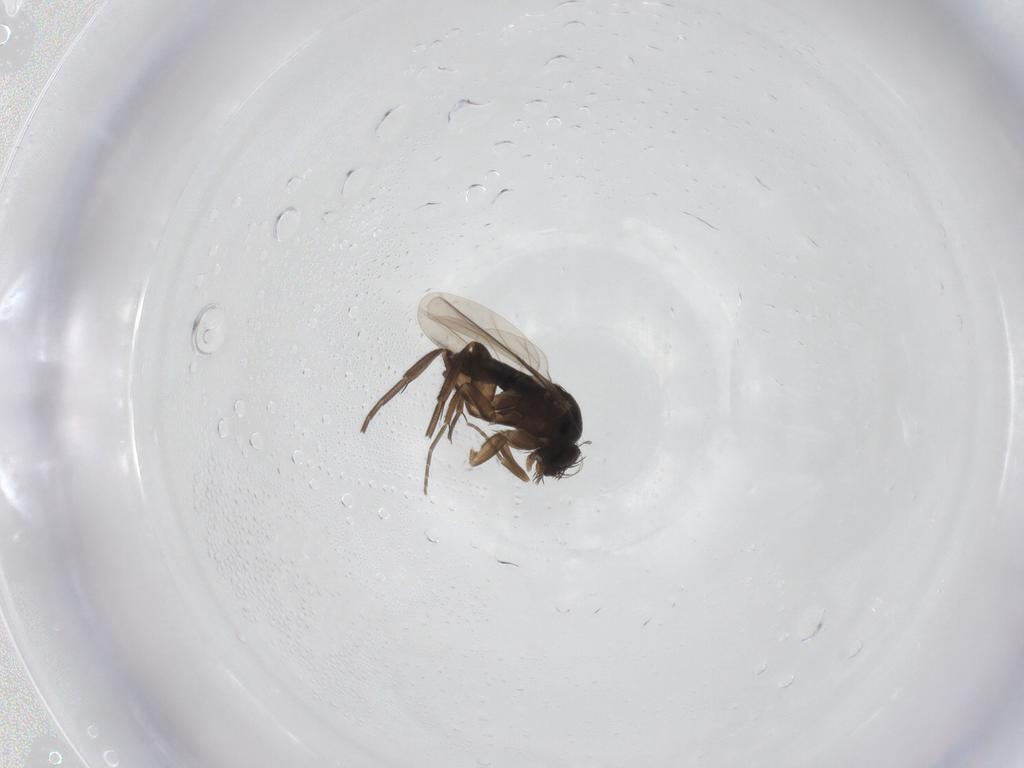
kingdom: Animalia
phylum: Arthropoda
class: Insecta
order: Diptera
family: Phoridae
